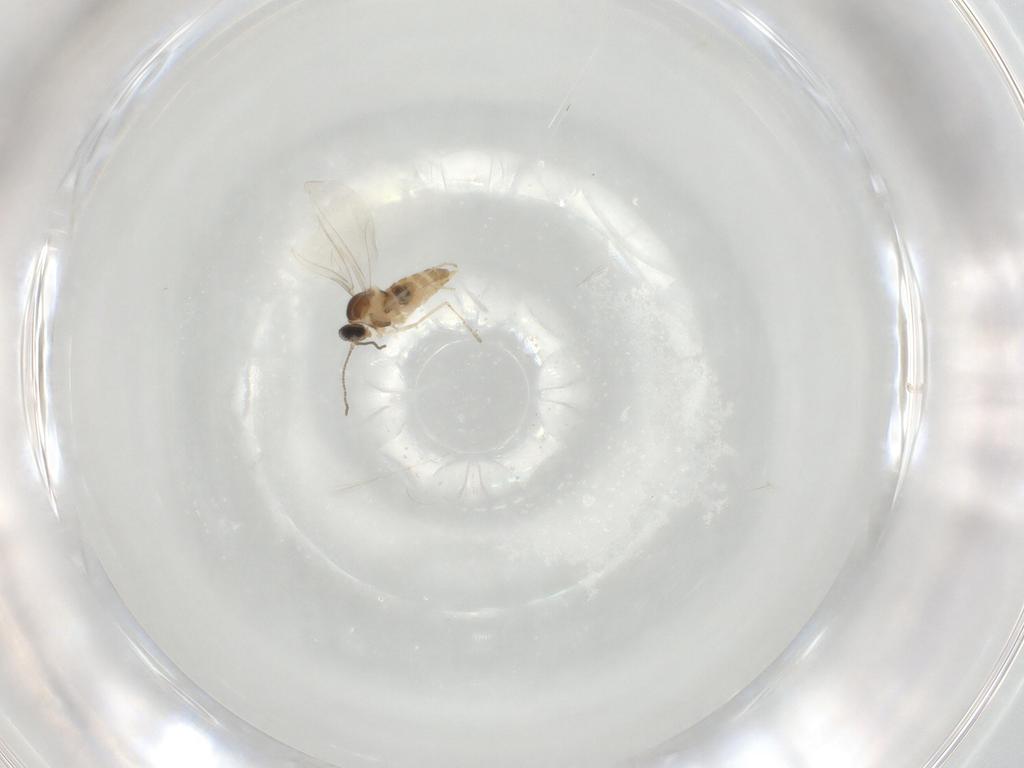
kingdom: Animalia
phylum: Arthropoda
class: Insecta
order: Diptera
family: Cecidomyiidae
